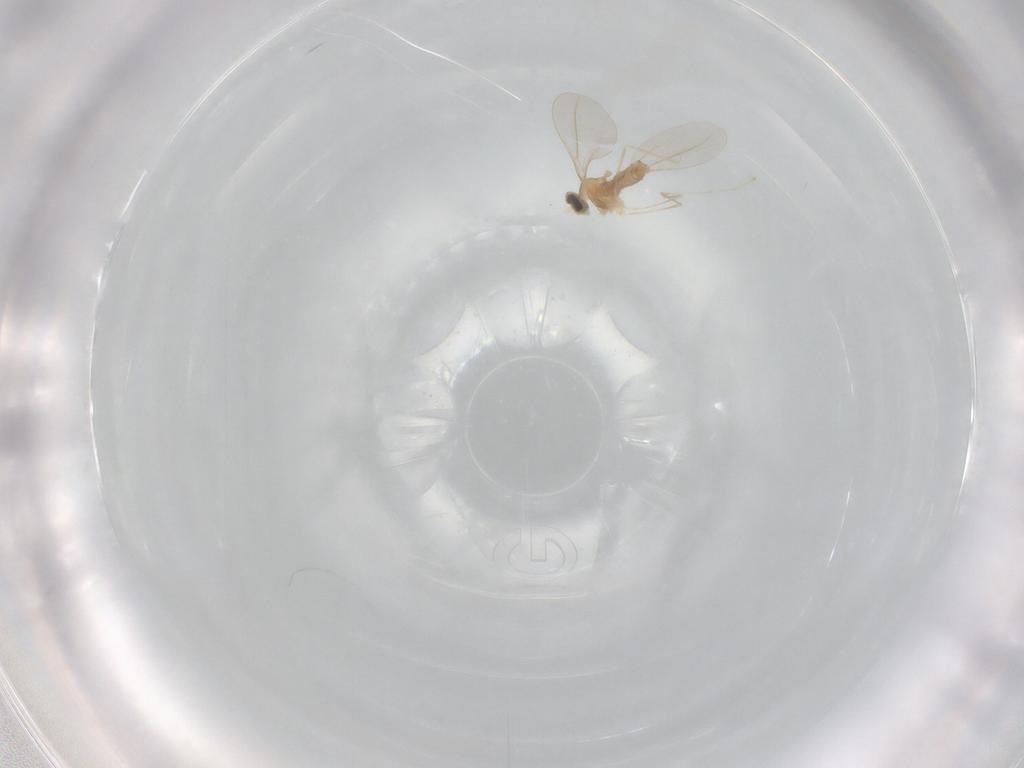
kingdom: Animalia
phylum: Arthropoda
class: Insecta
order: Diptera
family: Cecidomyiidae
